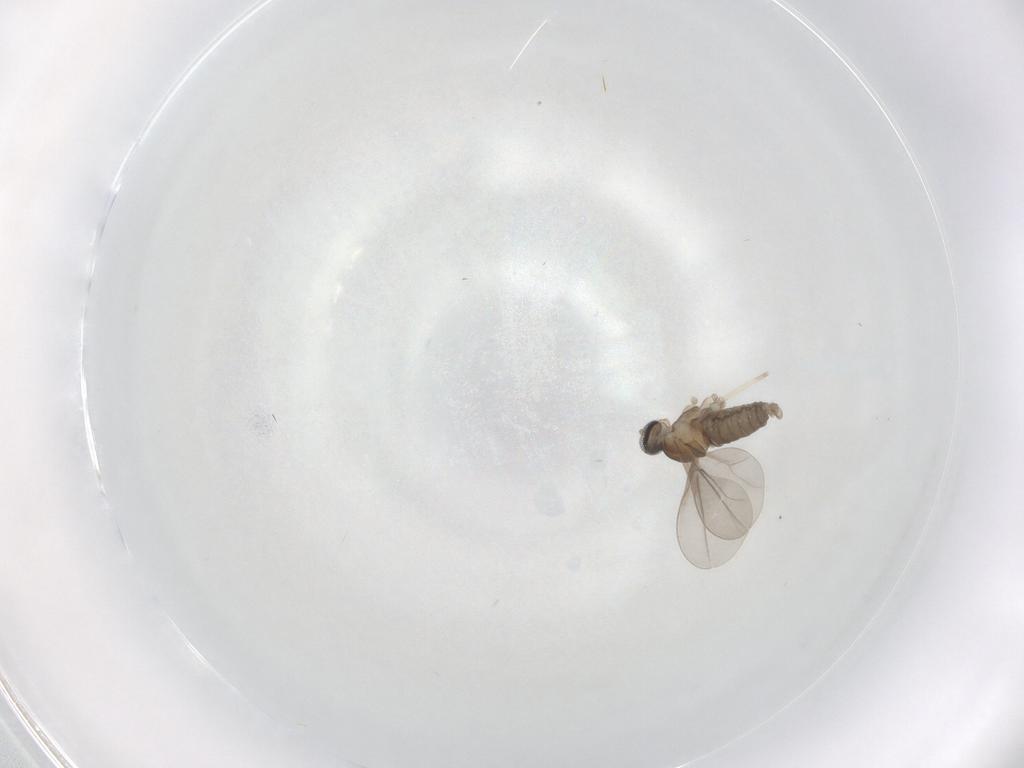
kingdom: Animalia
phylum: Arthropoda
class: Insecta
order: Diptera
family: Cecidomyiidae
